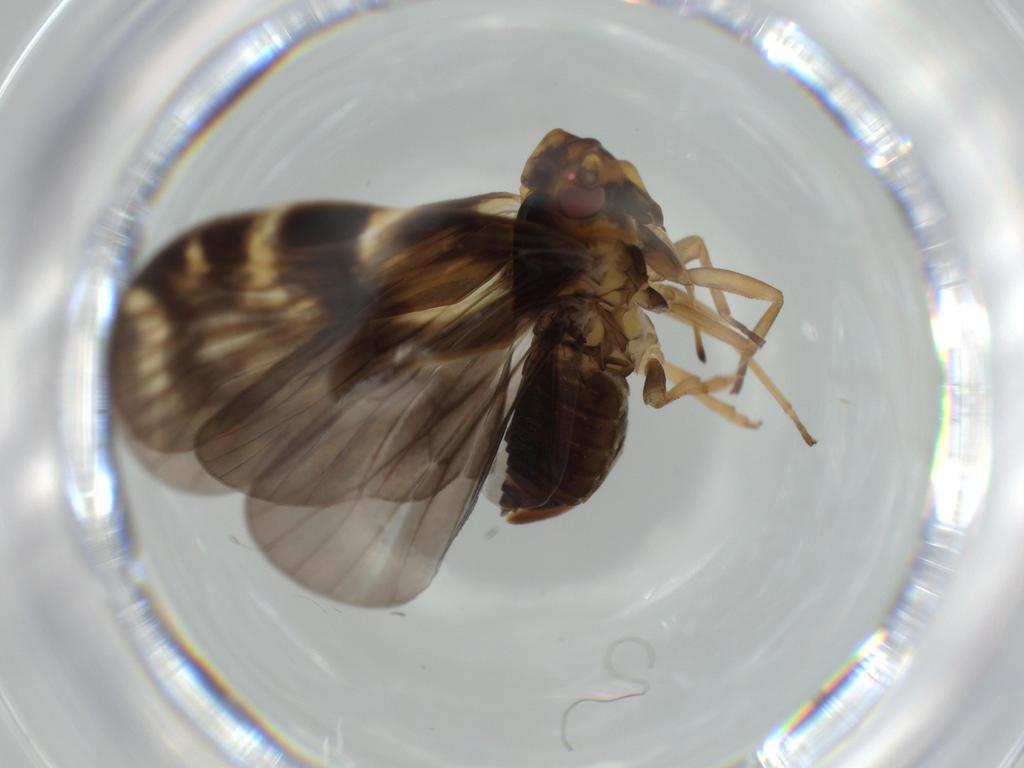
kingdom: Animalia
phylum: Arthropoda
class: Insecta
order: Hemiptera
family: Cixiidae
